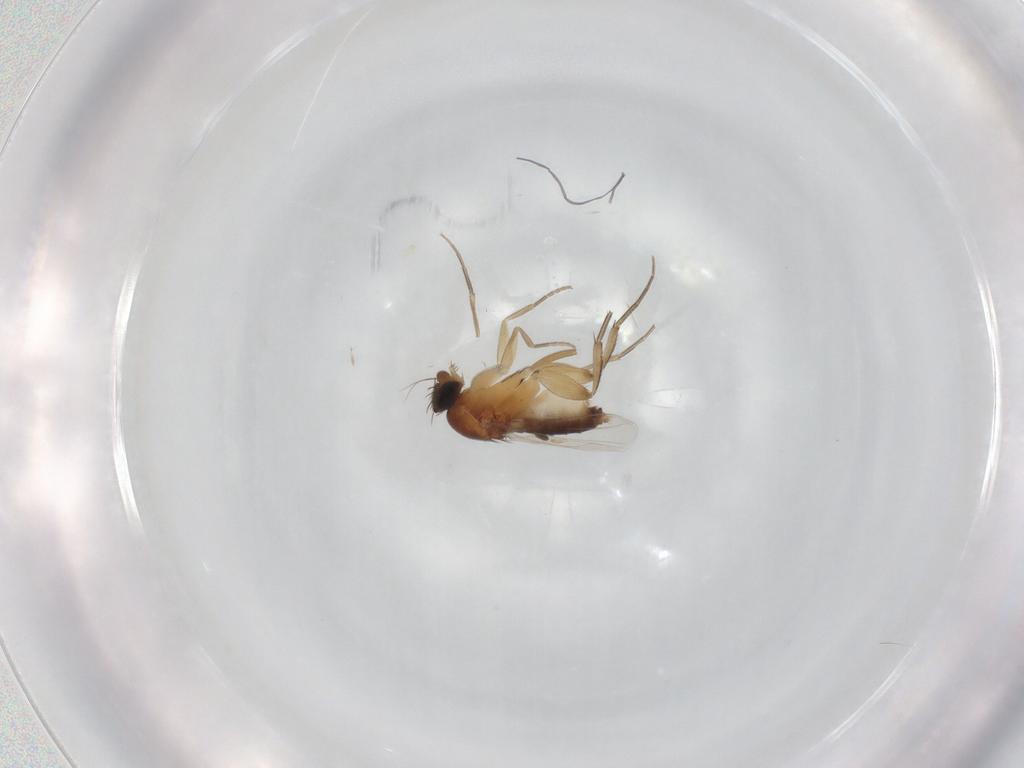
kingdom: Animalia
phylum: Arthropoda
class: Insecta
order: Diptera
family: Phoridae
